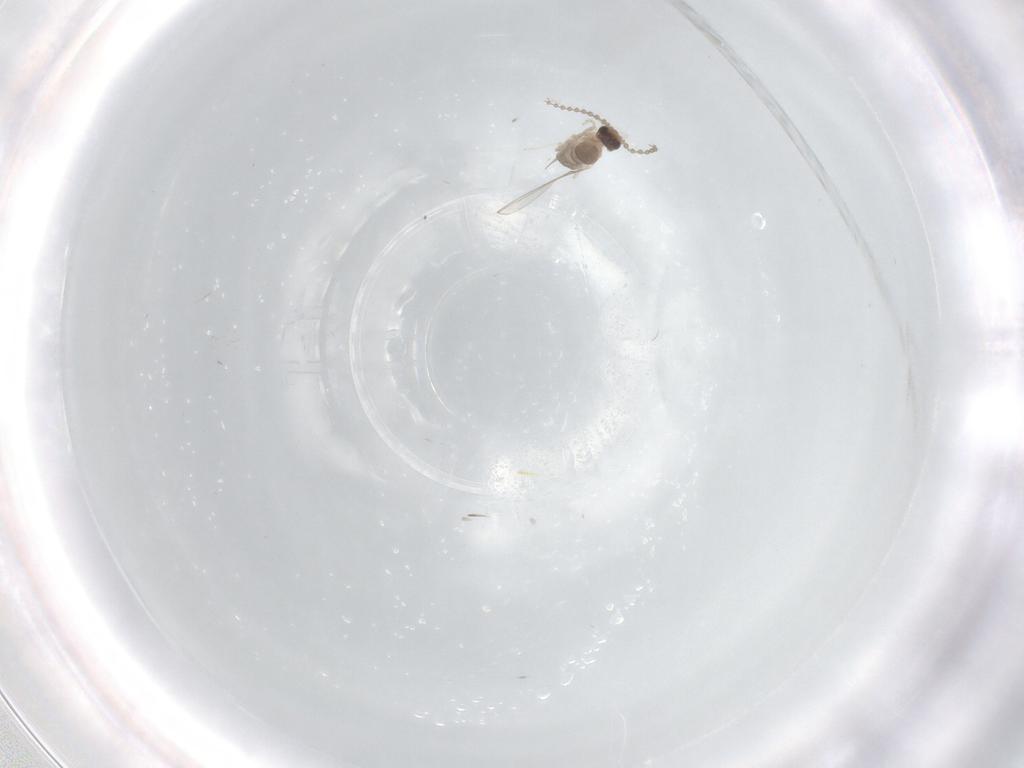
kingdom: Animalia
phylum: Arthropoda
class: Insecta
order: Diptera
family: Cecidomyiidae
